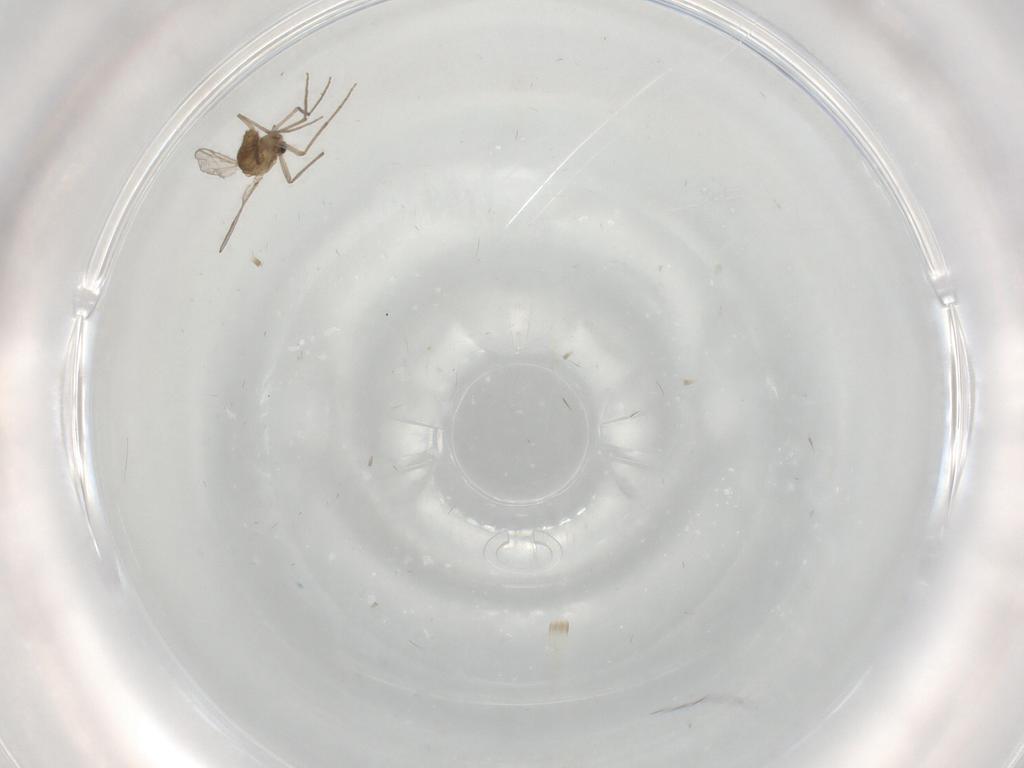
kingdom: Animalia
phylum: Arthropoda
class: Insecta
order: Diptera
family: Chironomidae
